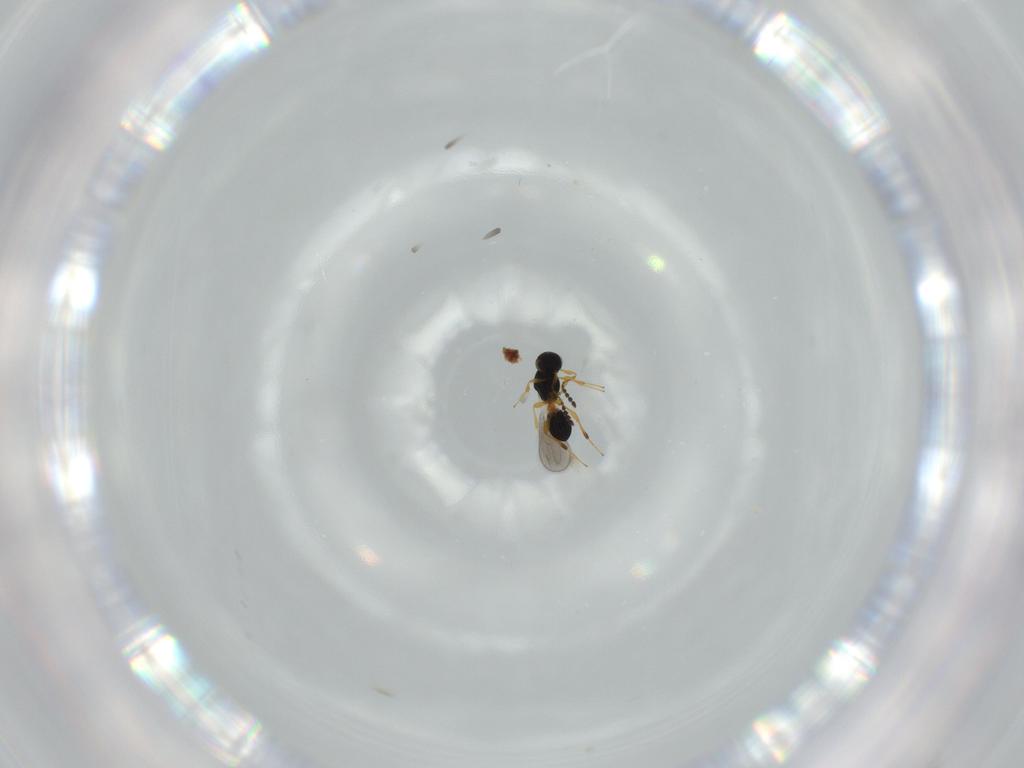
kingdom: Animalia
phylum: Arthropoda
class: Insecta
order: Hymenoptera
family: Platygastridae
